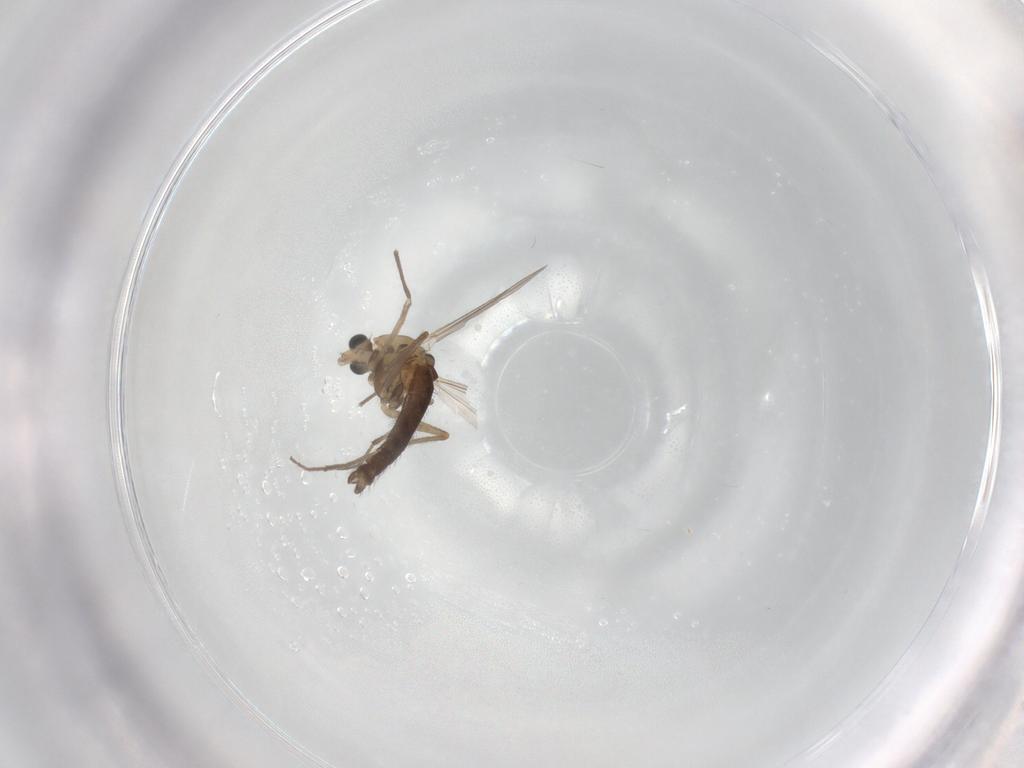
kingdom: Animalia
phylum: Arthropoda
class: Insecta
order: Diptera
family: Chironomidae
